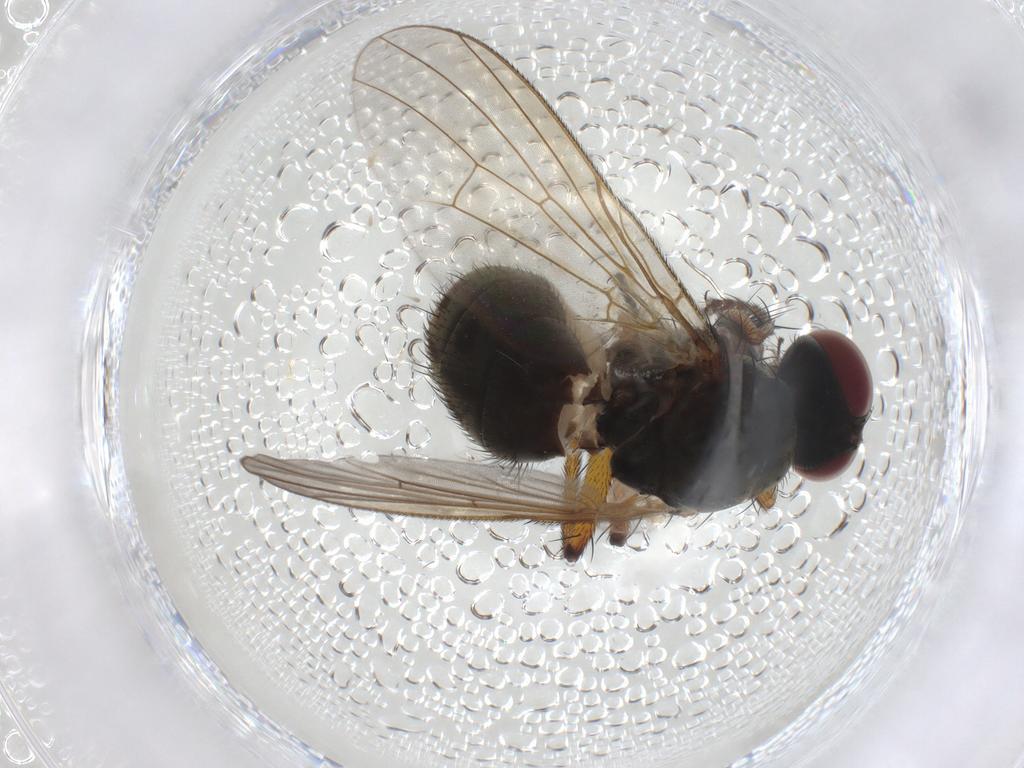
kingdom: Animalia
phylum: Arthropoda
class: Insecta
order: Diptera
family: Muscidae
